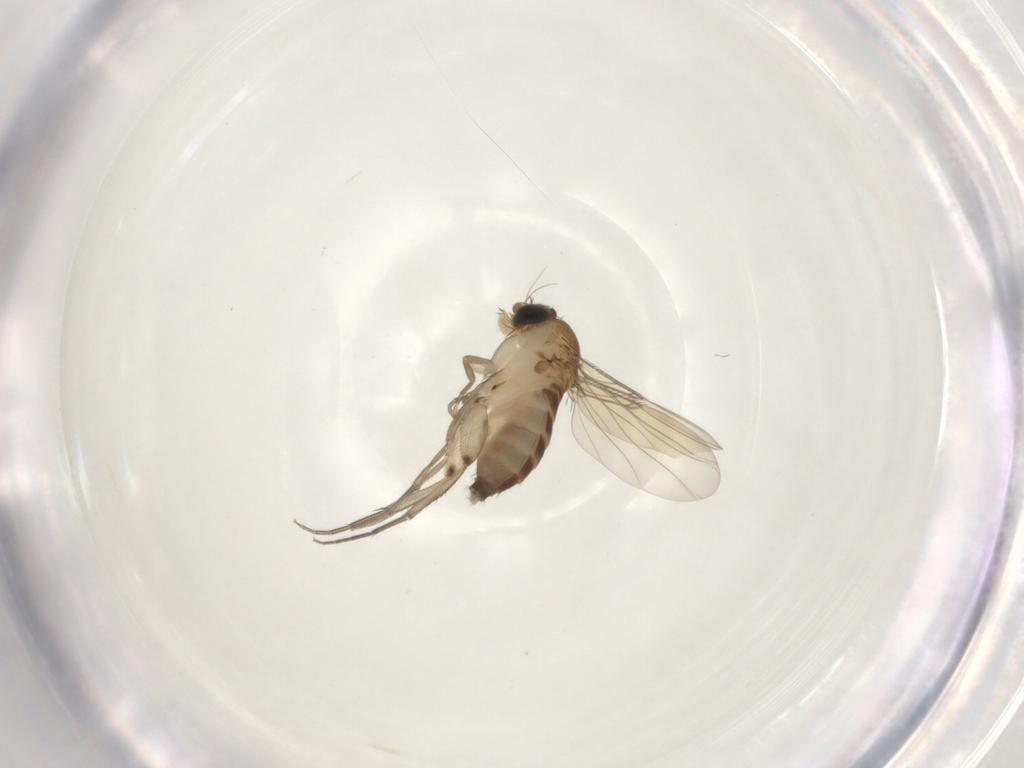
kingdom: Animalia
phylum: Arthropoda
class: Insecta
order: Diptera
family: Phoridae
